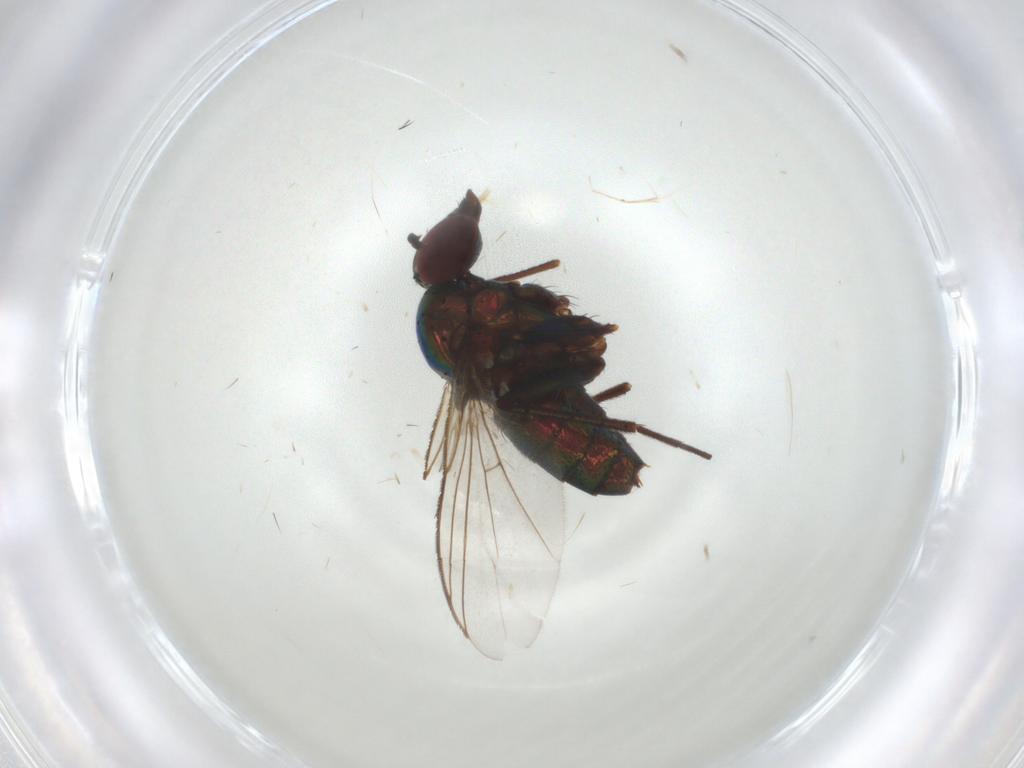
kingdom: Animalia
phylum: Arthropoda
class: Insecta
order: Diptera
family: Dolichopodidae
